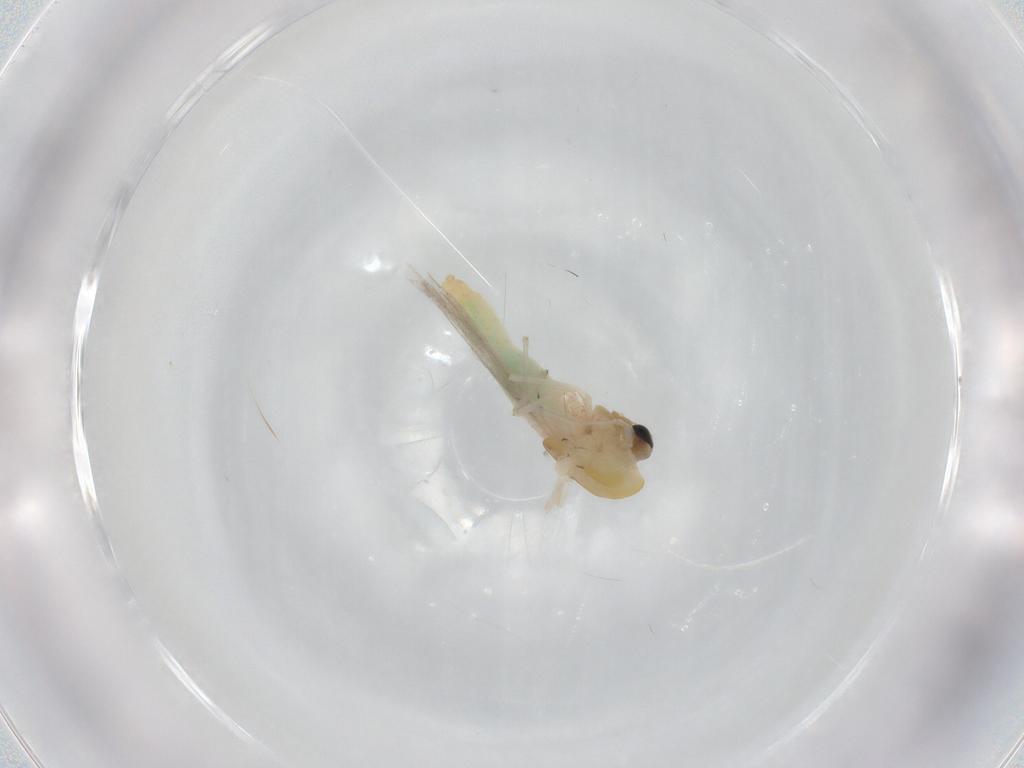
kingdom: Animalia
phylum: Arthropoda
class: Insecta
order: Diptera
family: Chironomidae
